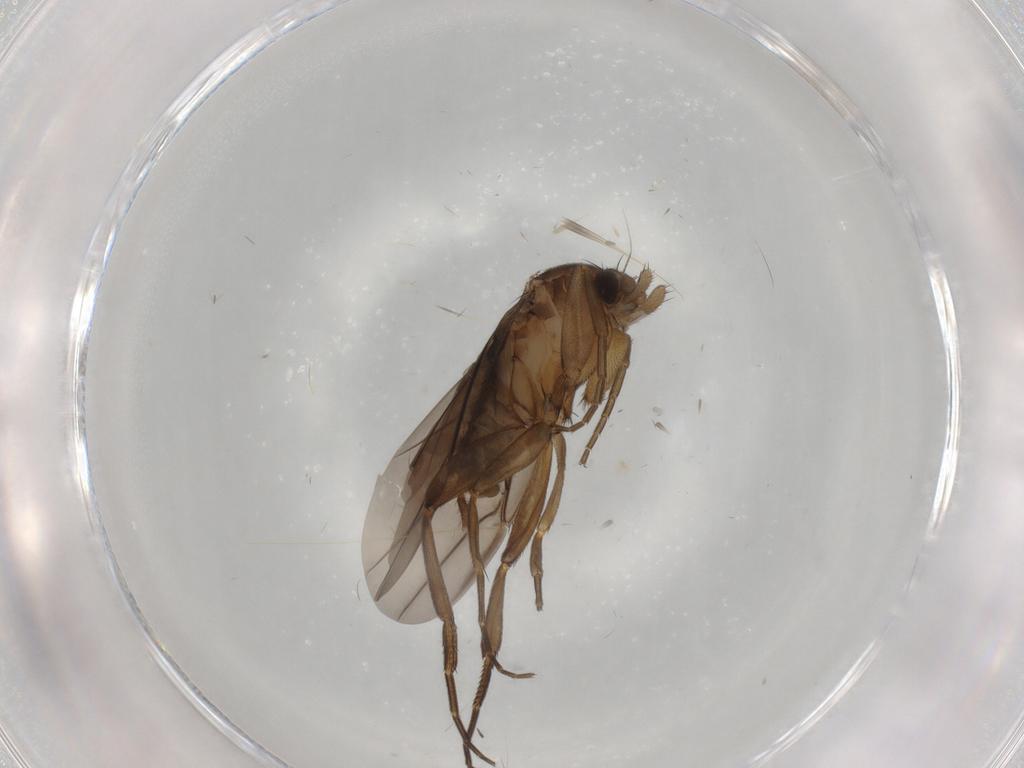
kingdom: Animalia
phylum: Arthropoda
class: Insecta
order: Diptera
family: Phoridae
